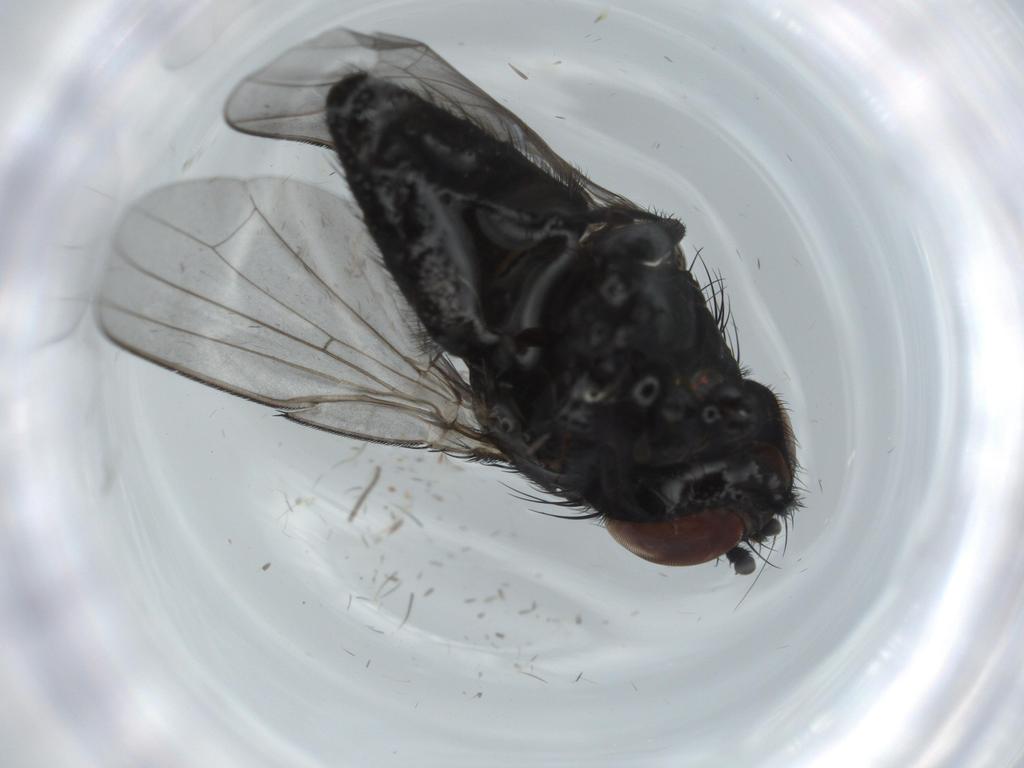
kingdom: Animalia
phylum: Arthropoda
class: Insecta
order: Diptera
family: Milichiidae
